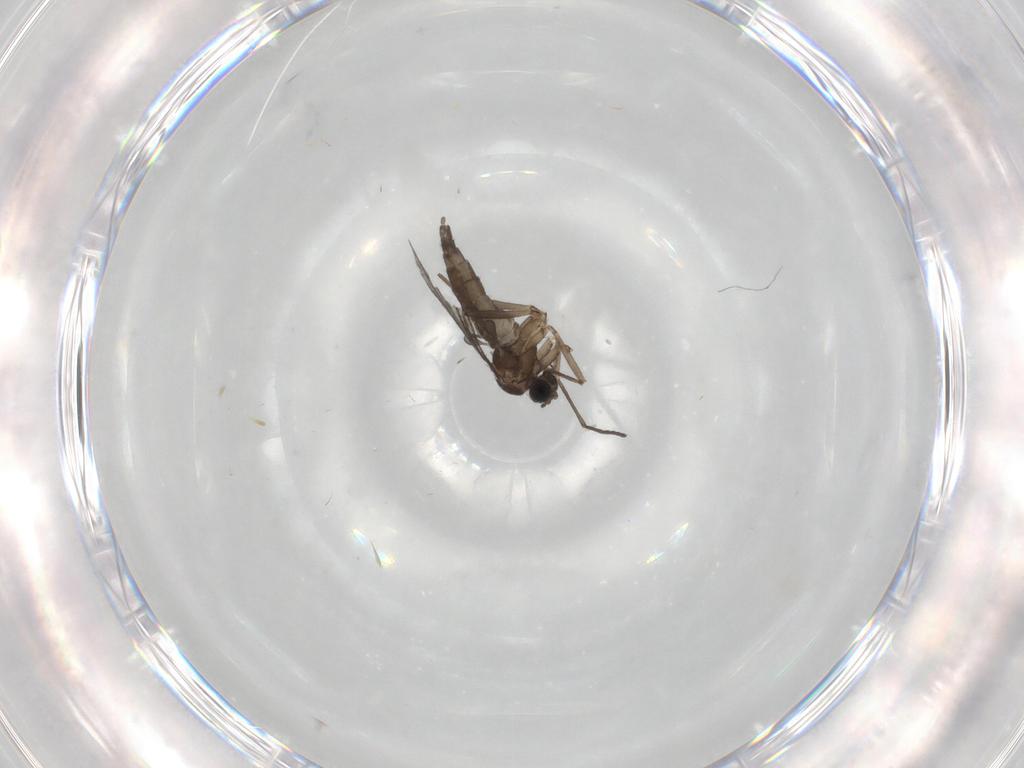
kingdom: Animalia
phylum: Arthropoda
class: Insecta
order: Diptera
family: Sciaridae
